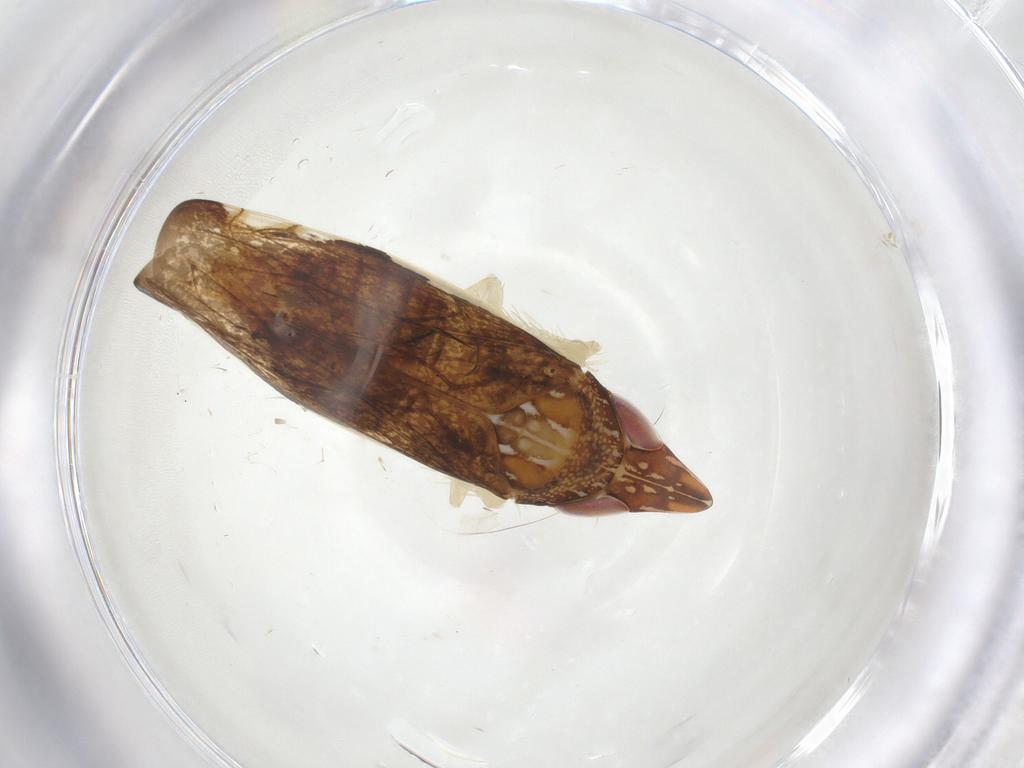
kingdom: Animalia
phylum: Arthropoda
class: Insecta
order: Hemiptera
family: Cicadellidae
